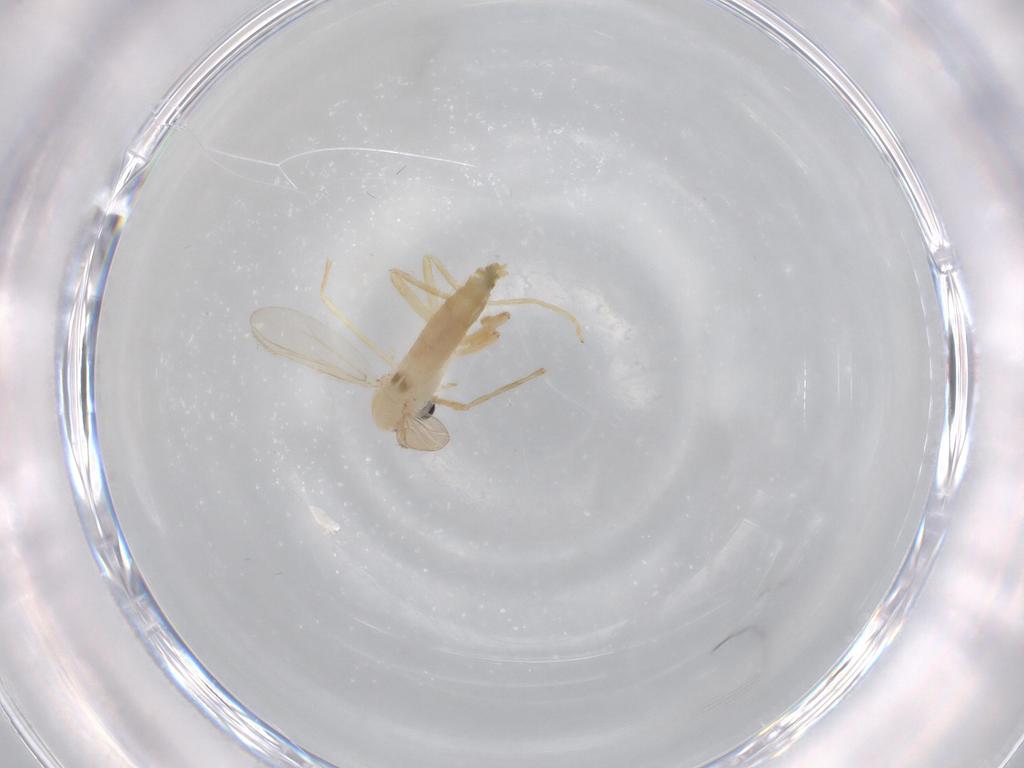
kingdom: Animalia
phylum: Arthropoda
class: Insecta
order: Diptera
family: Chironomidae
